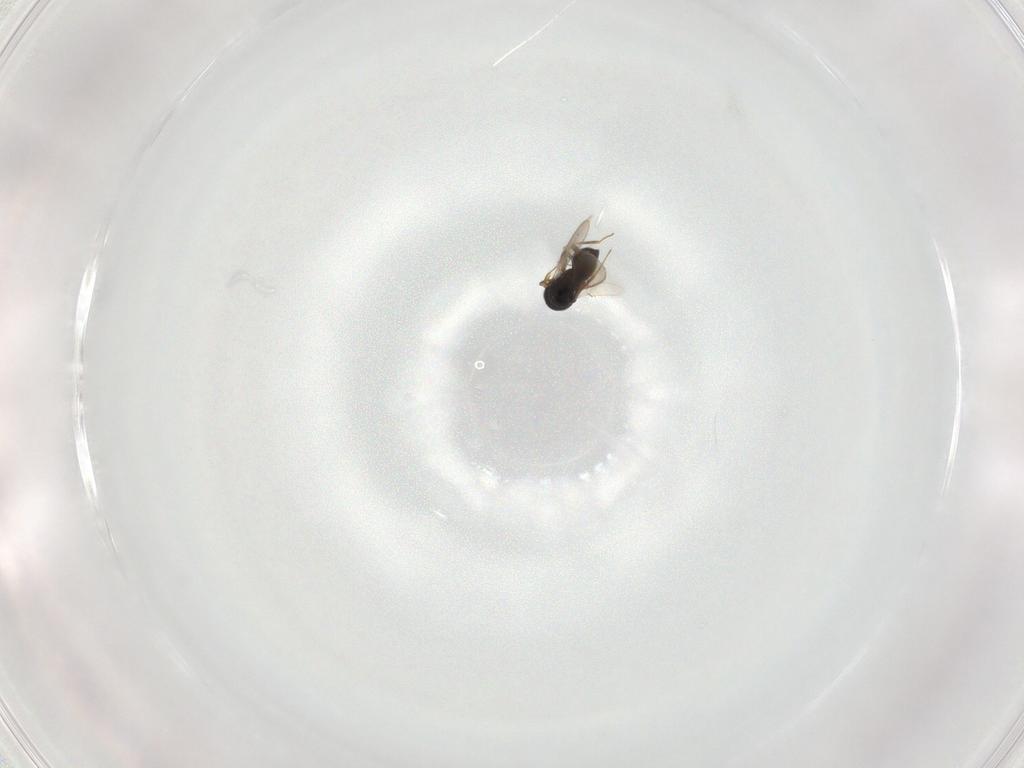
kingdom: Animalia
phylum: Arthropoda
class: Insecta
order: Hymenoptera
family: Scelionidae
